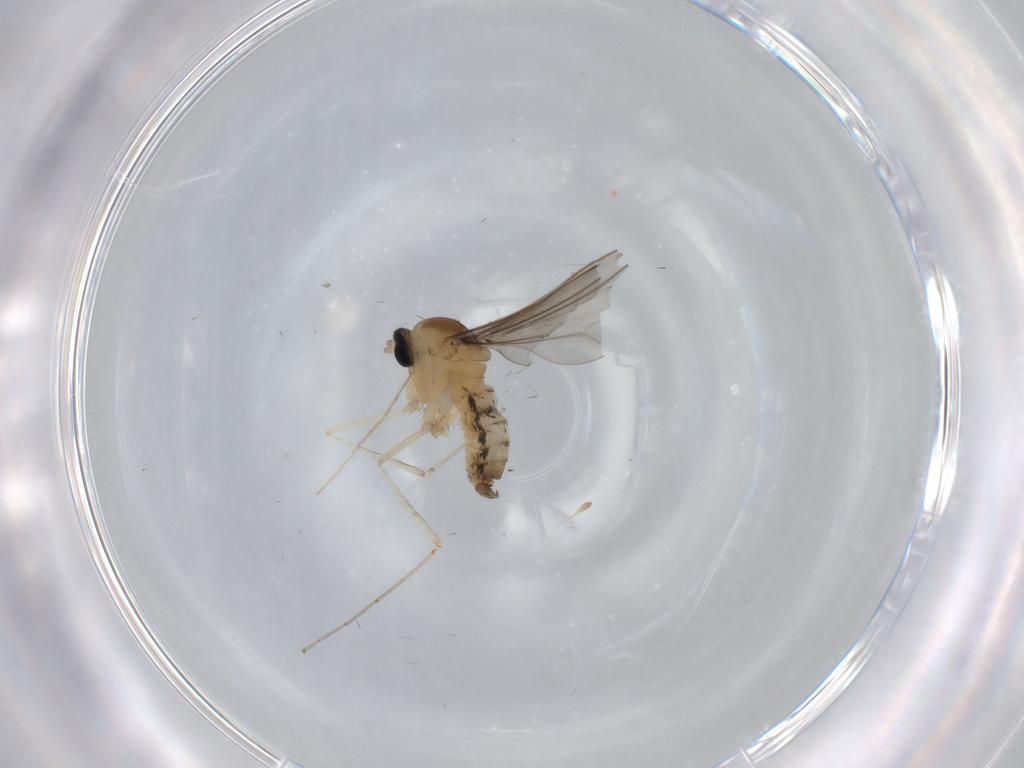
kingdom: Animalia
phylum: Arthropoda
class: Insecta
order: Diptera
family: Cecidomyiidae
